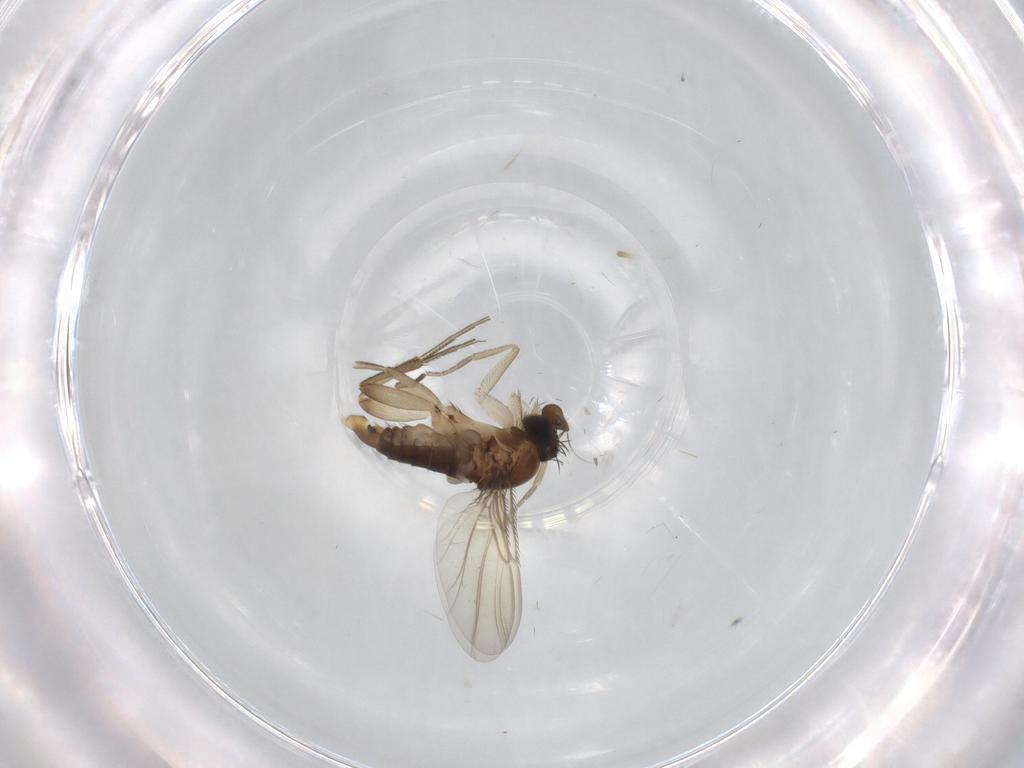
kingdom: Animalia
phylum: Arthropoda
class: Insecta
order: Diptera
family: Phoridae
